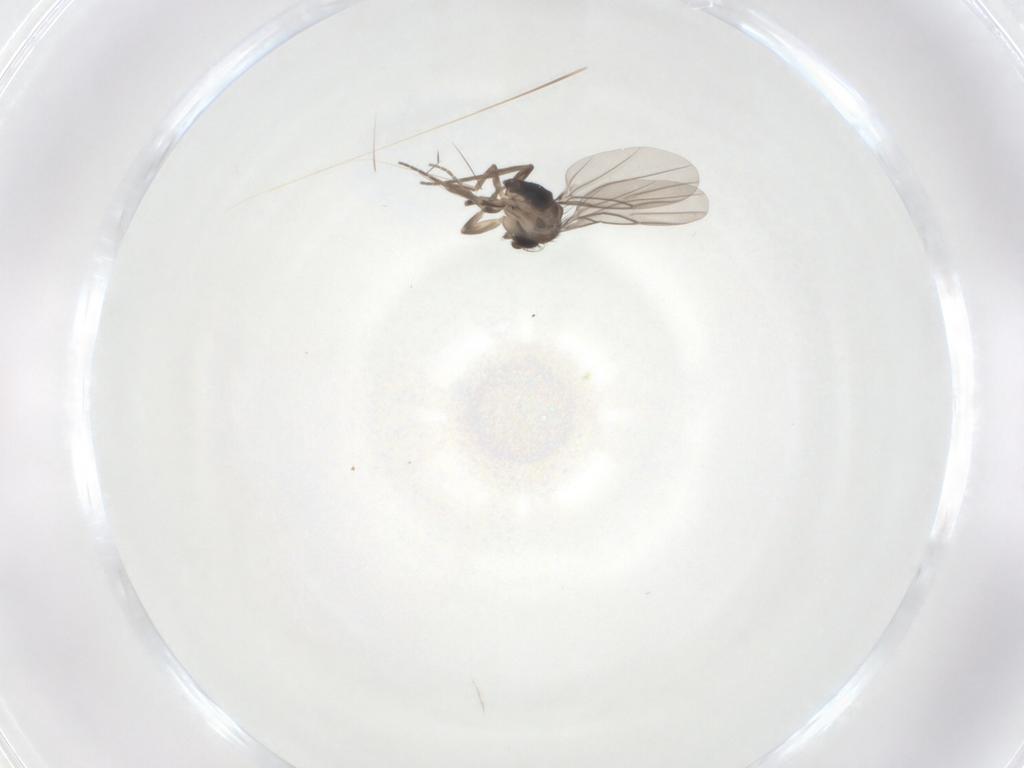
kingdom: Animalia
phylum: Arthropoda
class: Insecta
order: Diptera
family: Phoridae
